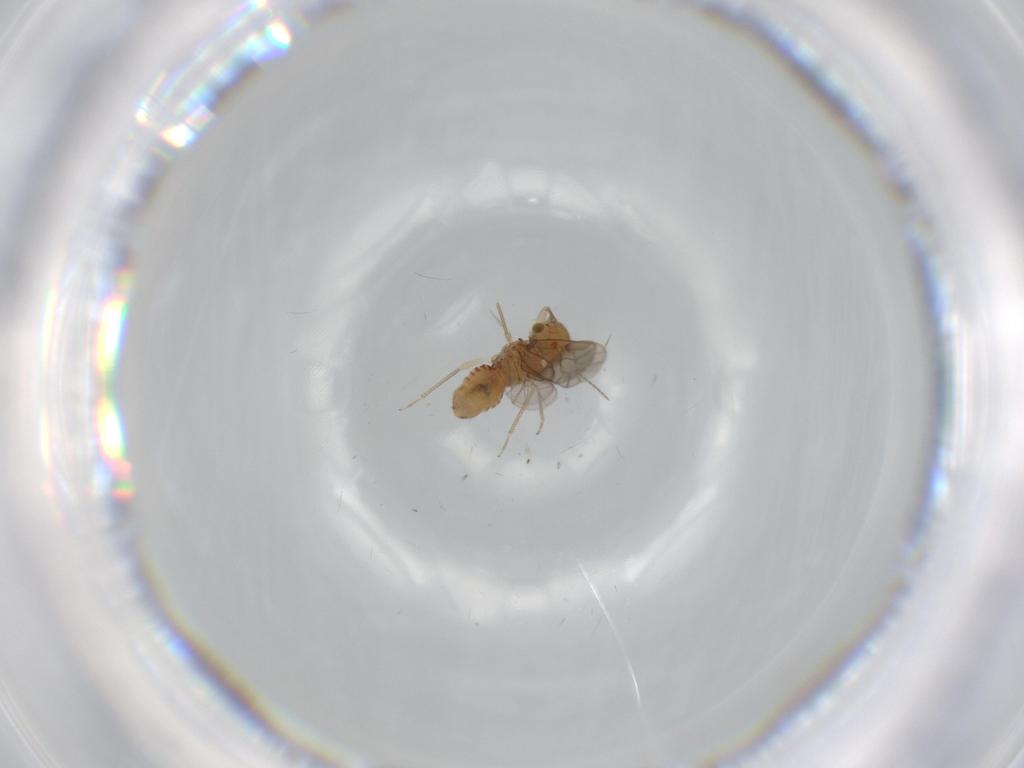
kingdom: Animalia
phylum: Arthropoda
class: Insecta
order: Psocodea
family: Ectopsocidae
